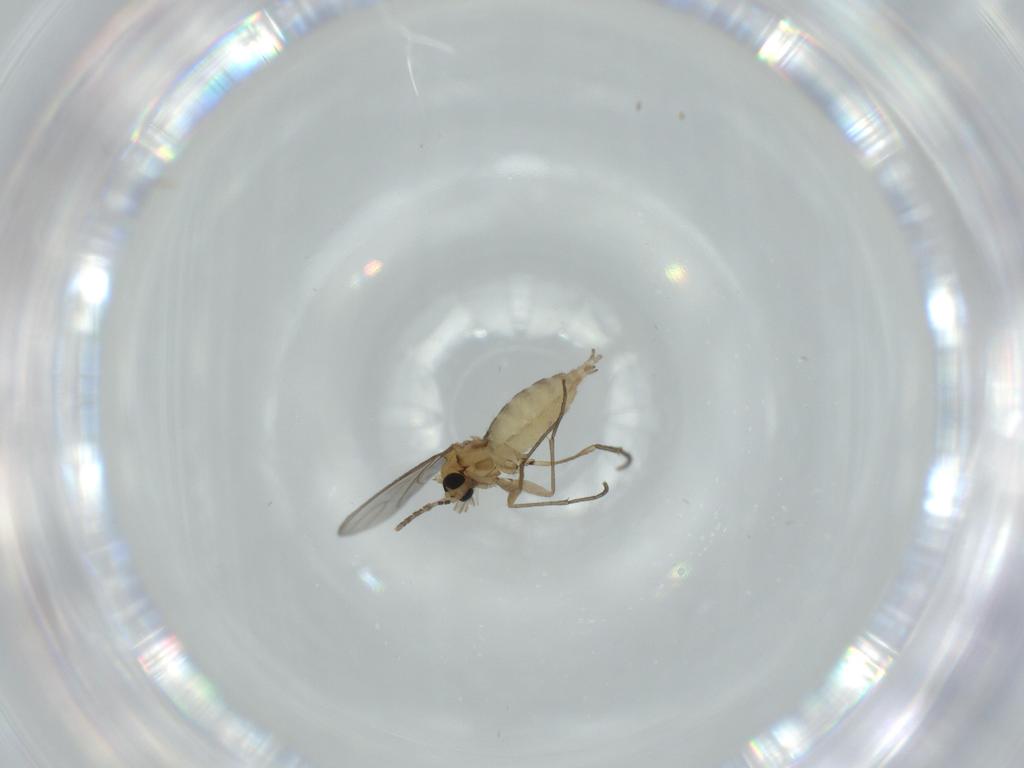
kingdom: Animalia
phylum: Arthropoda
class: Insecta
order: Diptera
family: Sciaridae
